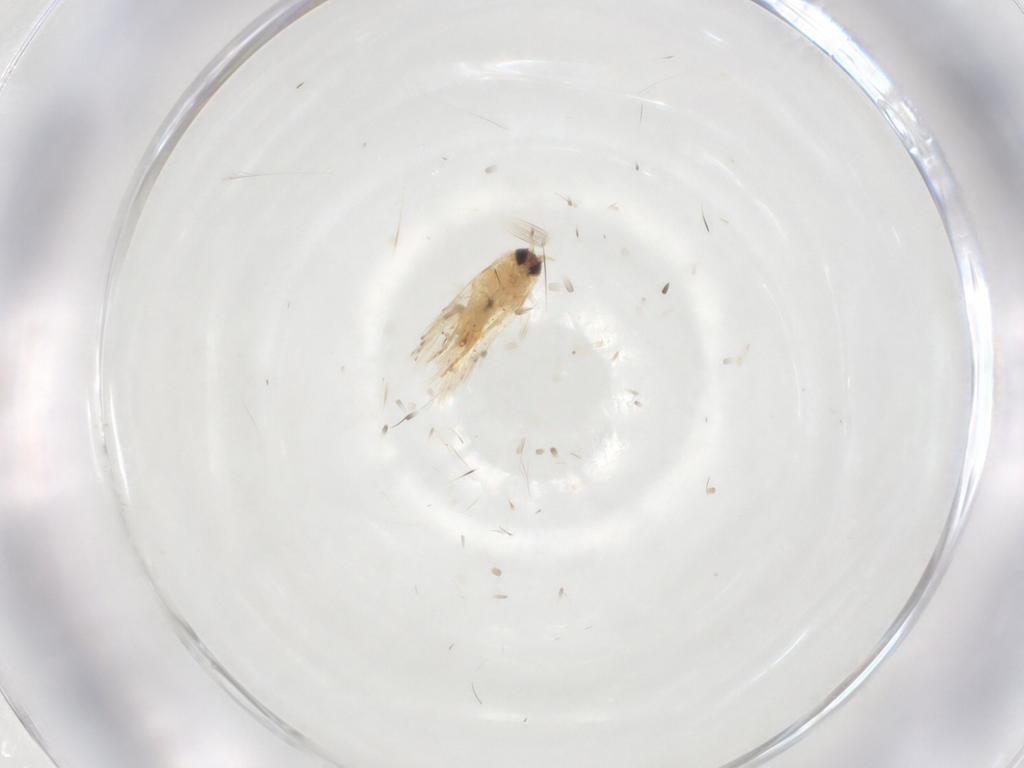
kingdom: Animalia
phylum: Arthropoda
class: Insecta
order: Lepidoptera
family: Crambidae
